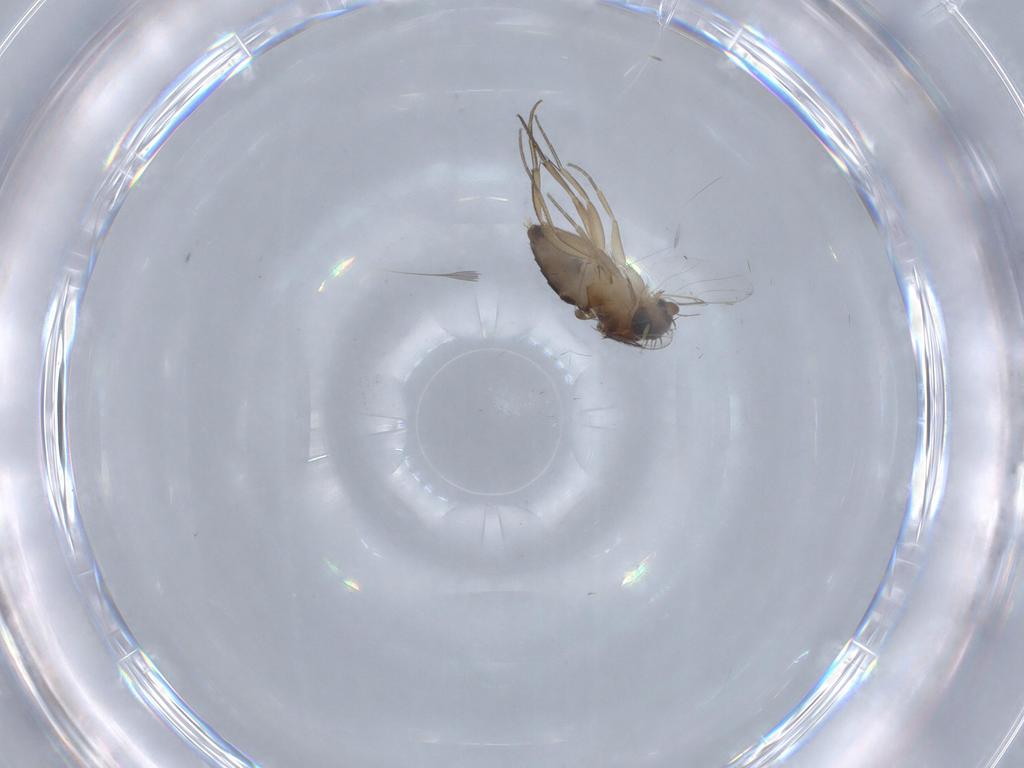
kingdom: Animalia
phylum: Arthropoda
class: Insecta
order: Diptera
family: Phoridae
